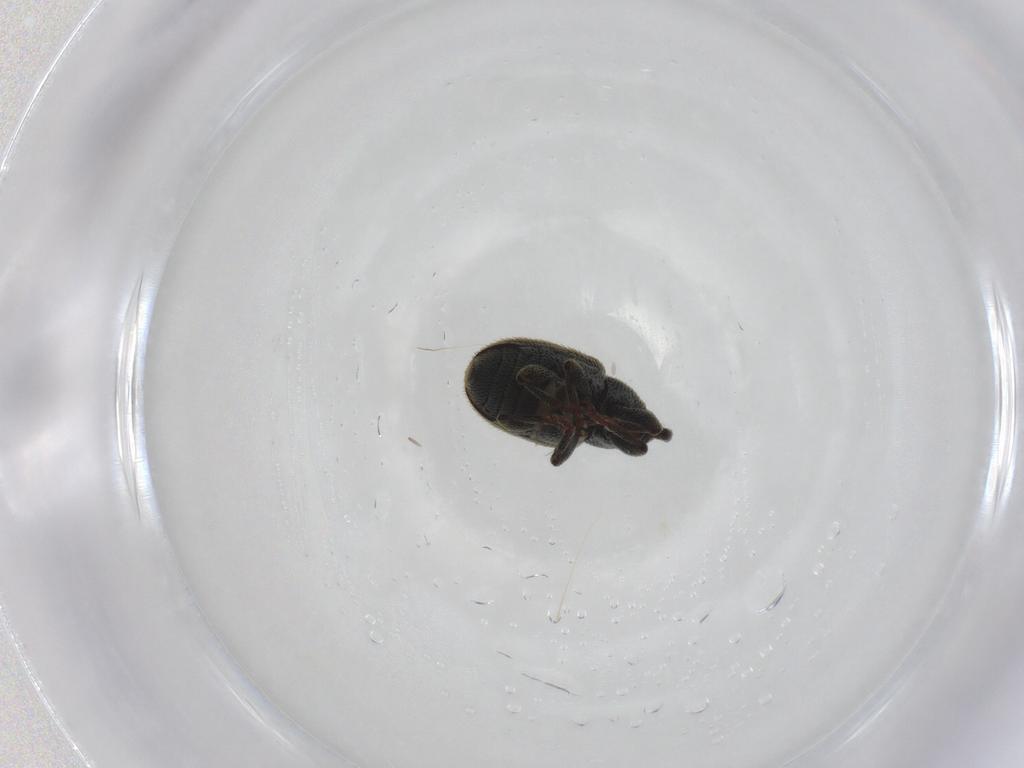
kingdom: Animalia
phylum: Arthropoda
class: Insecta
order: Coleoptera
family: Curculionidae
